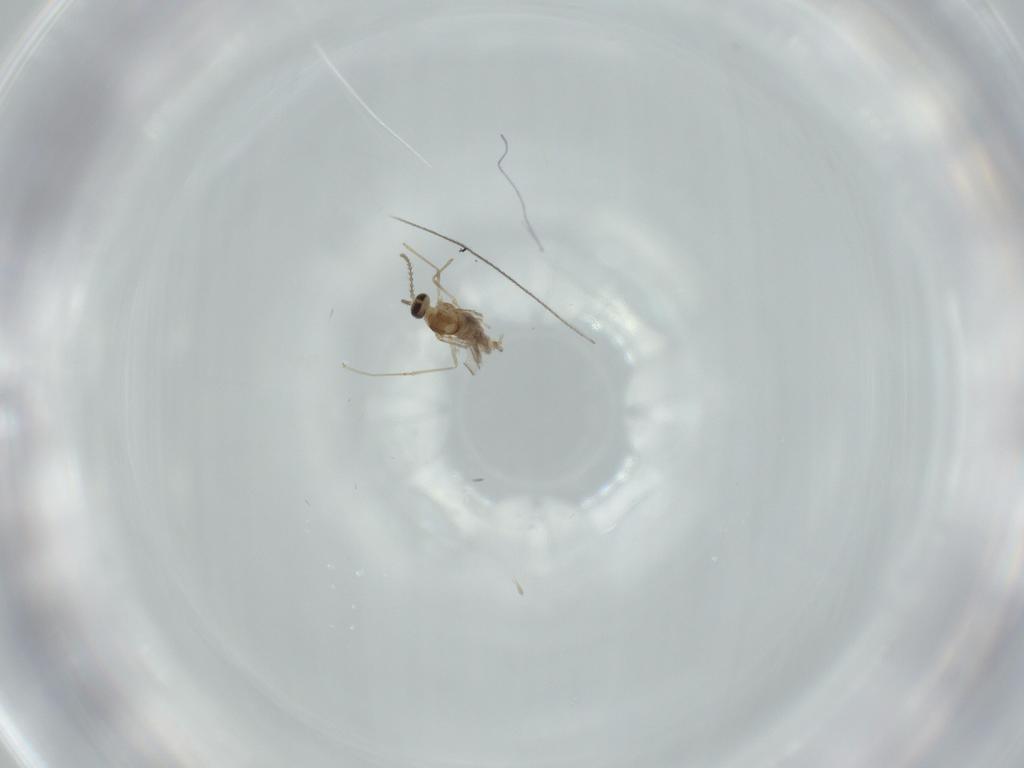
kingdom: Animalia
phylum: Arthropoda
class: Insecta
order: Diptera
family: Cecidomyiidae
